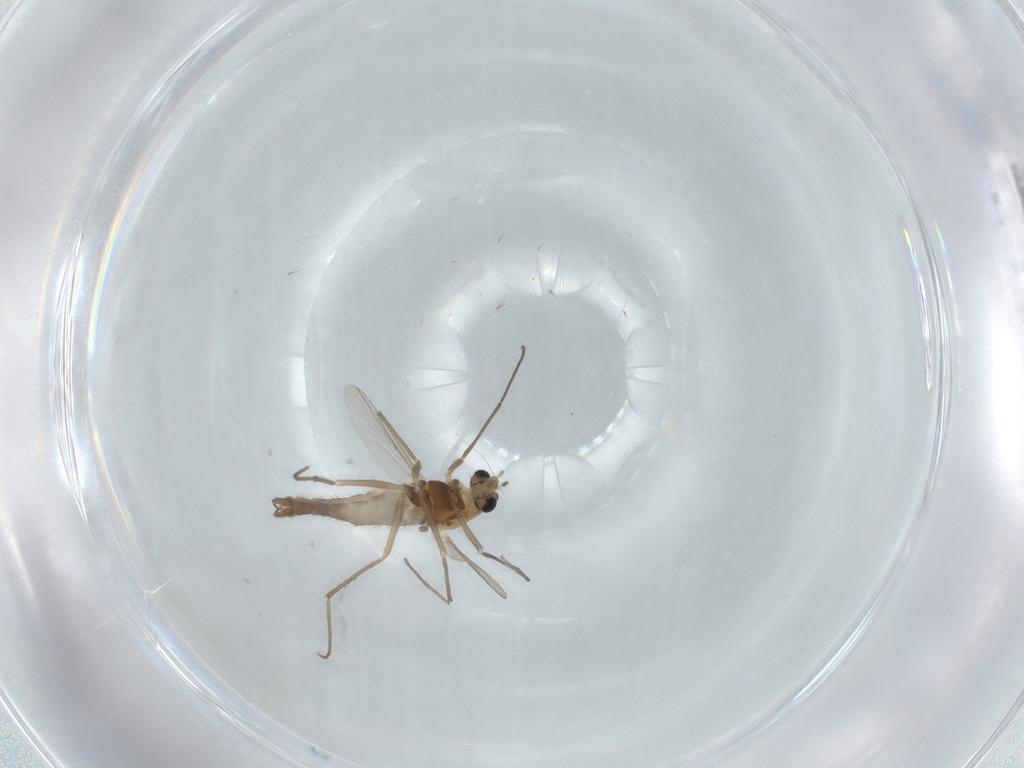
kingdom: Animalia
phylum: Arthropoda
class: Insecta
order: Diptera
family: Chironomidae
